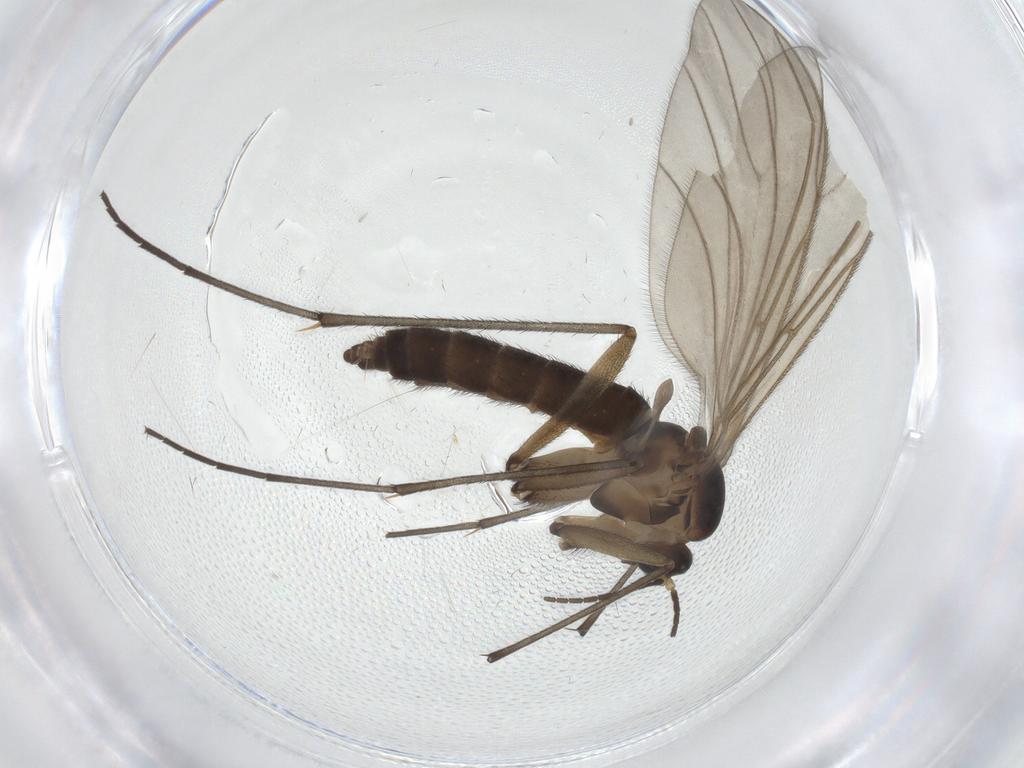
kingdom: Animalia
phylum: Arthropoda
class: Insecta
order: Diptera
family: Sciaridae
